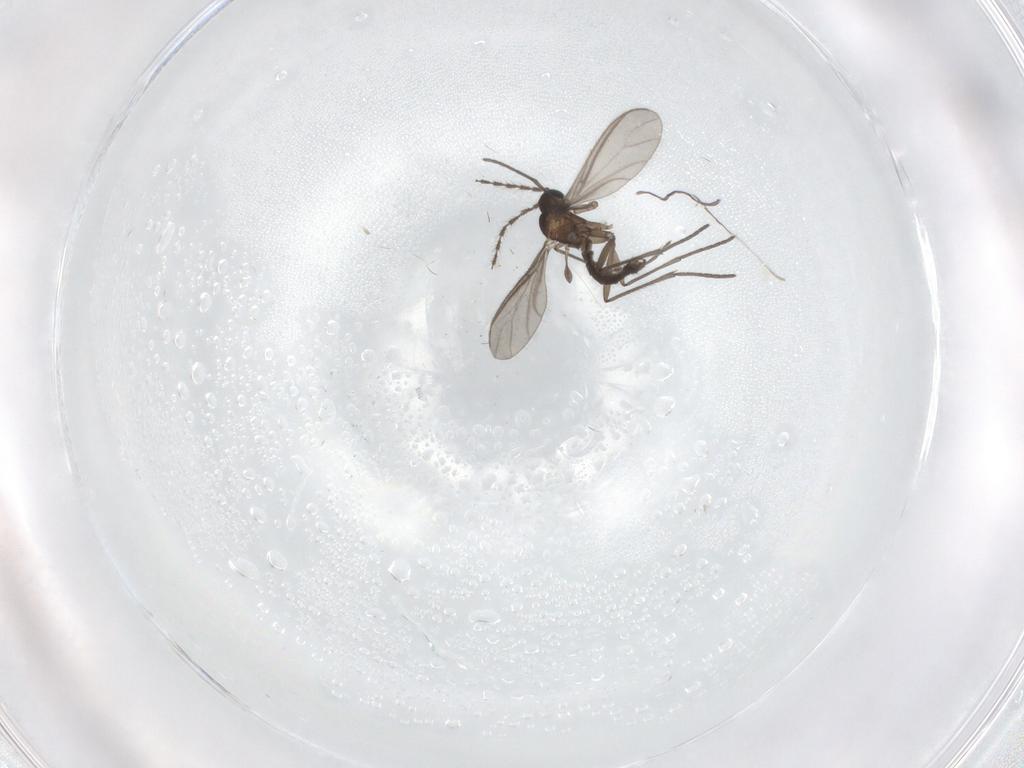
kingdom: Animalia
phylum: Arthropoda
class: Insecta
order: Diptera
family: Sciaridae
